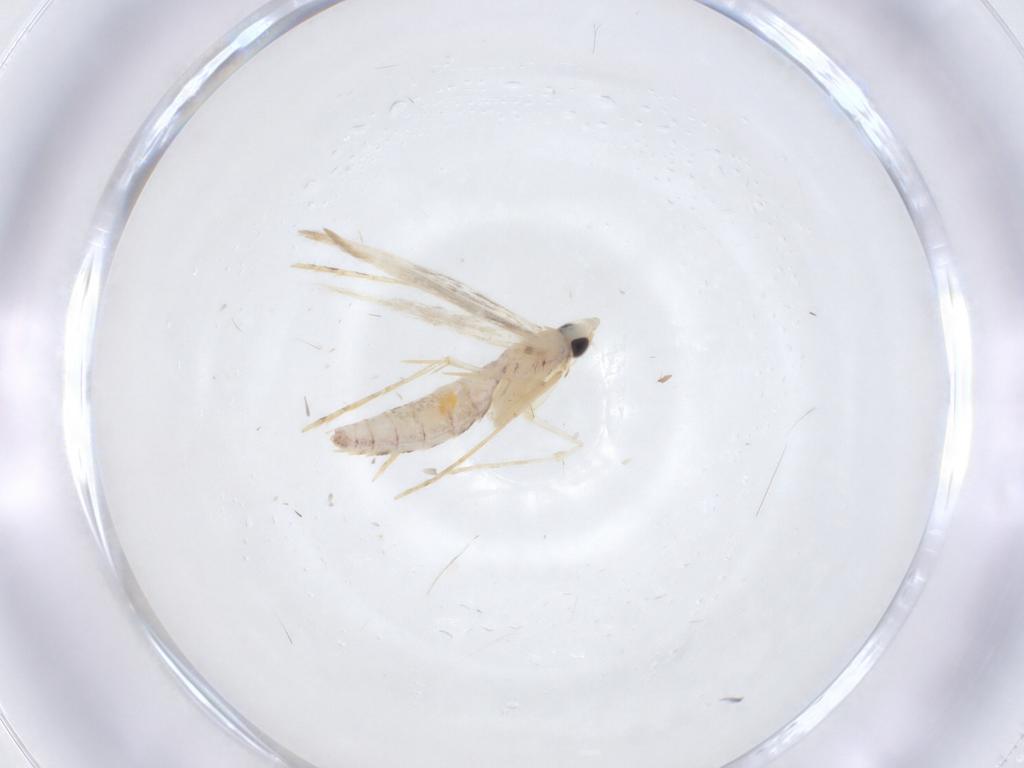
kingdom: Animalia
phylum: Arthropoda
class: Insecta
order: Lepidoptera
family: Tineidae
